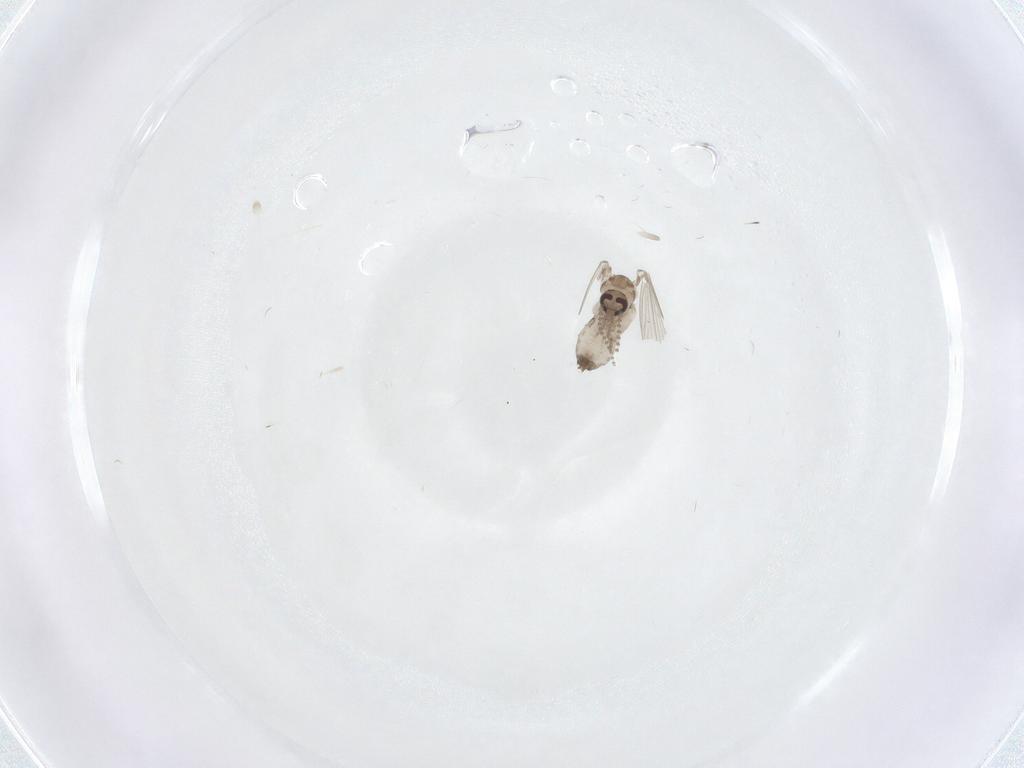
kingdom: Animalia
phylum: Arthropoda
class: Insecta
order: Diptera
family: Psychodidae
